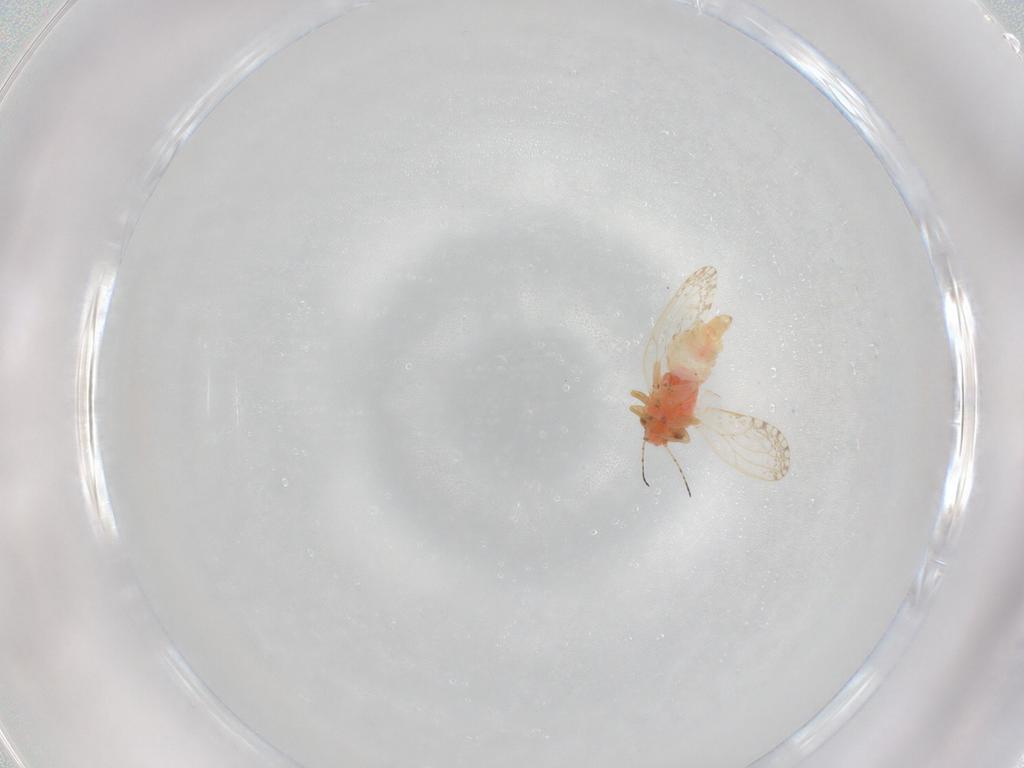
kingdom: Animalia
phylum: Arthropoda
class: Insecta
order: Hemiptera
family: Psyllidae
